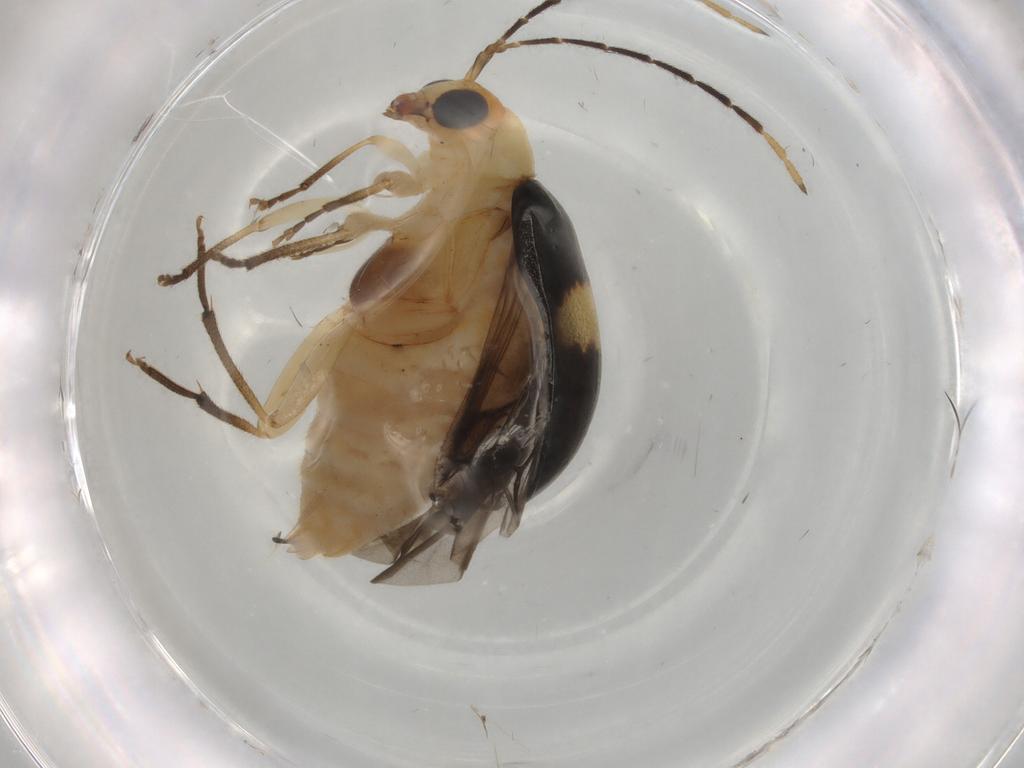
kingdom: Animalia
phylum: Arthropoda
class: Insecta
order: Coleoptera
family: Chrysomelidae
